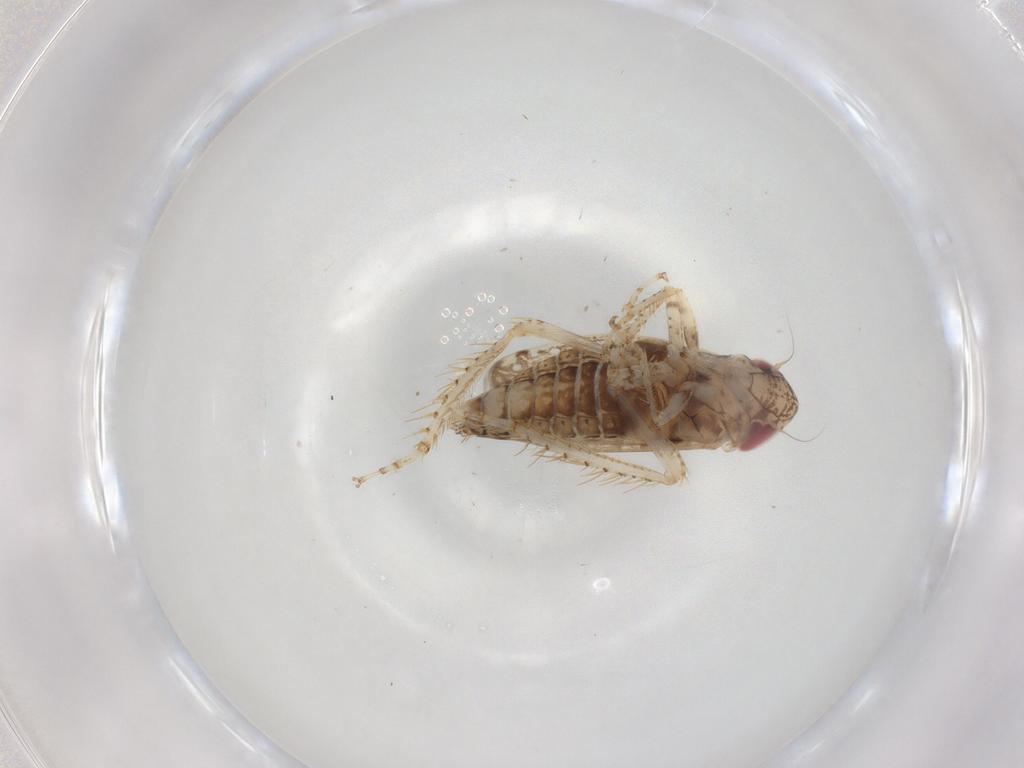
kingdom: Animalia
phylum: Arthropoda
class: Insecta
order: Hemiptera
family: Cicadellidae
